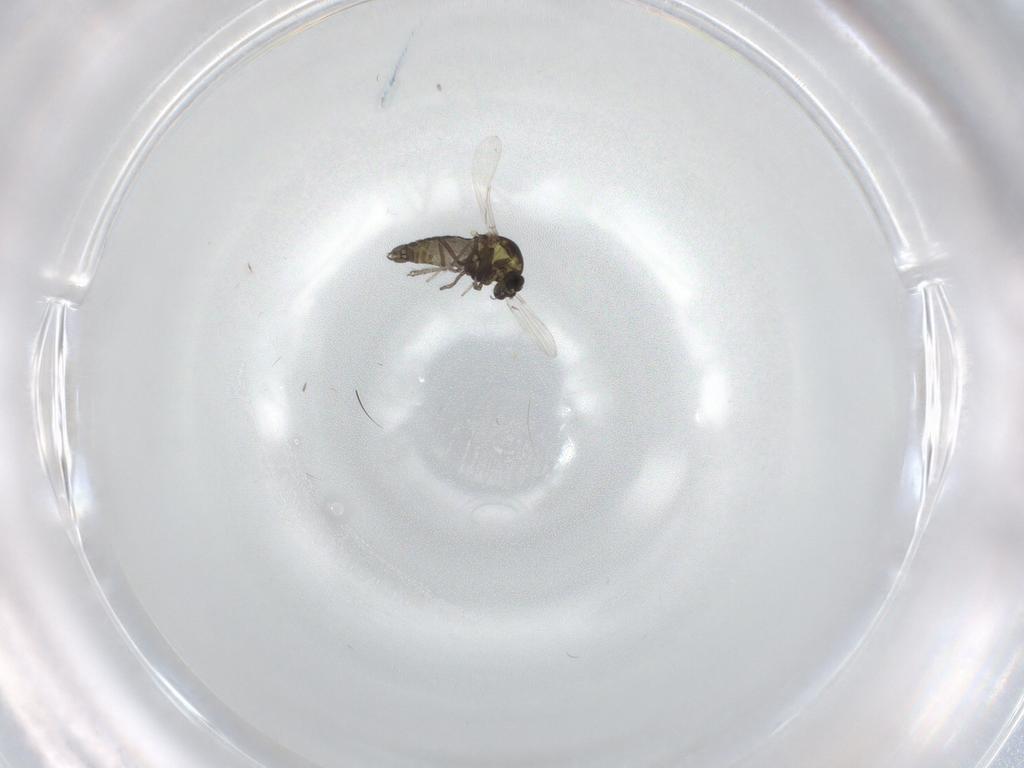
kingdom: Animalia
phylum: Arthropoda
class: Insecta
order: Diptera
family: Ceratopogonidae
